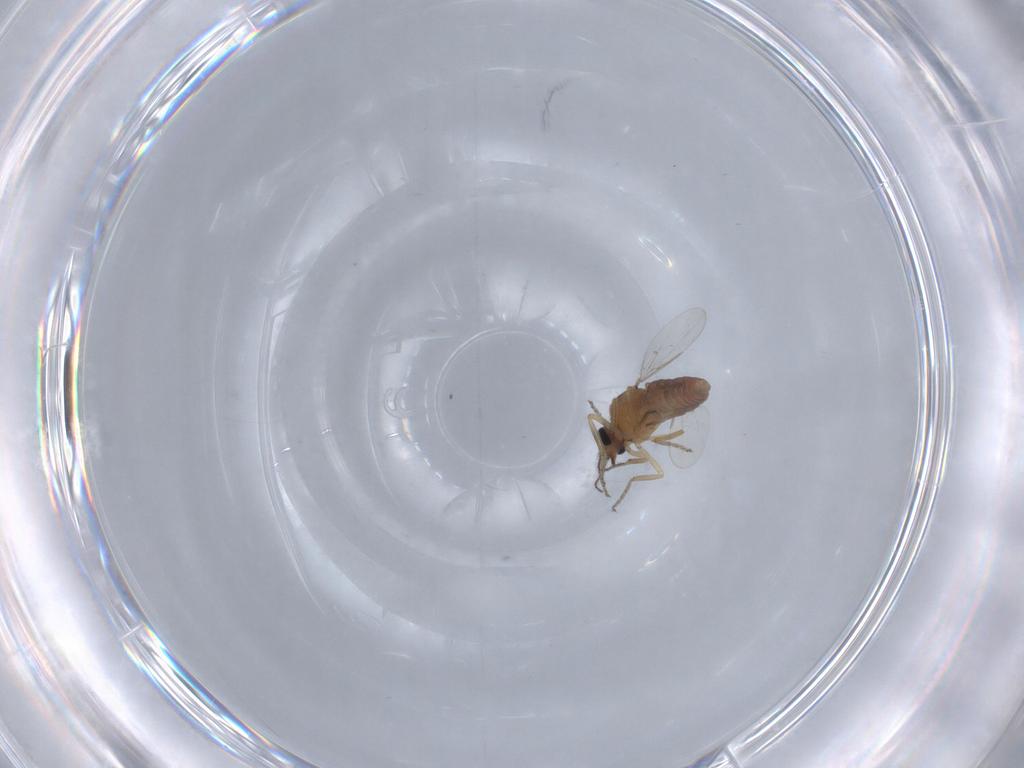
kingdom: Animalia
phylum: Arthropoda
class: Insecta
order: Diptera
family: Ceratopogonidae
